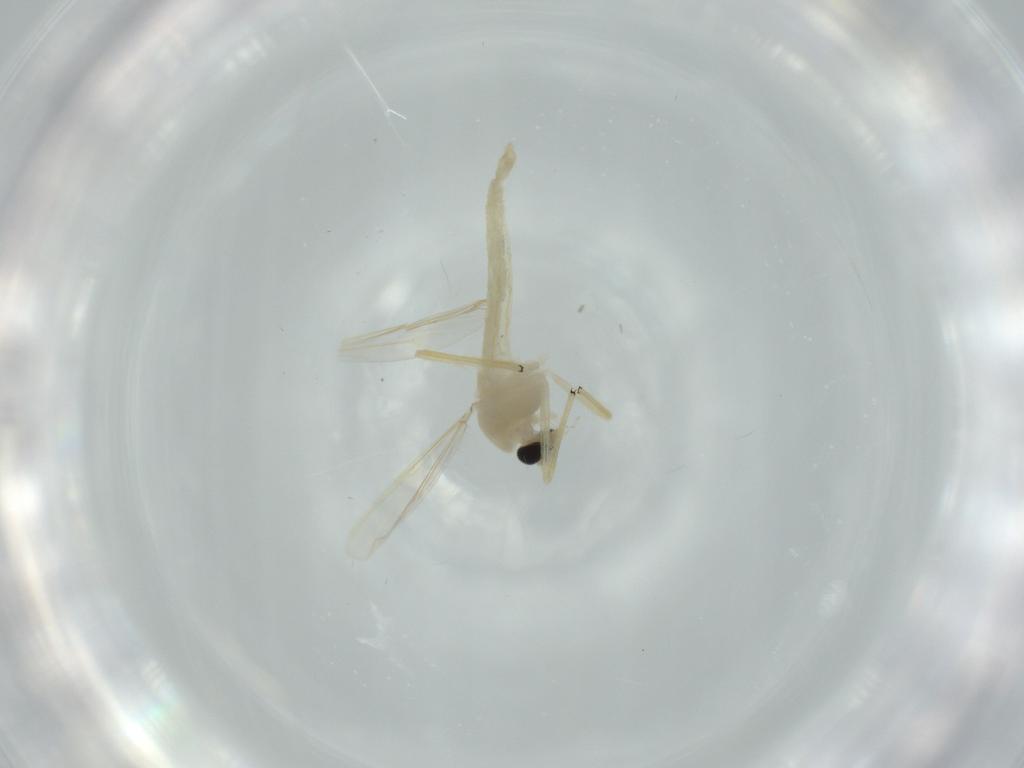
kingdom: Animalia
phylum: Arthropoda
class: Insecta
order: Diptera
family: Chironomidae
